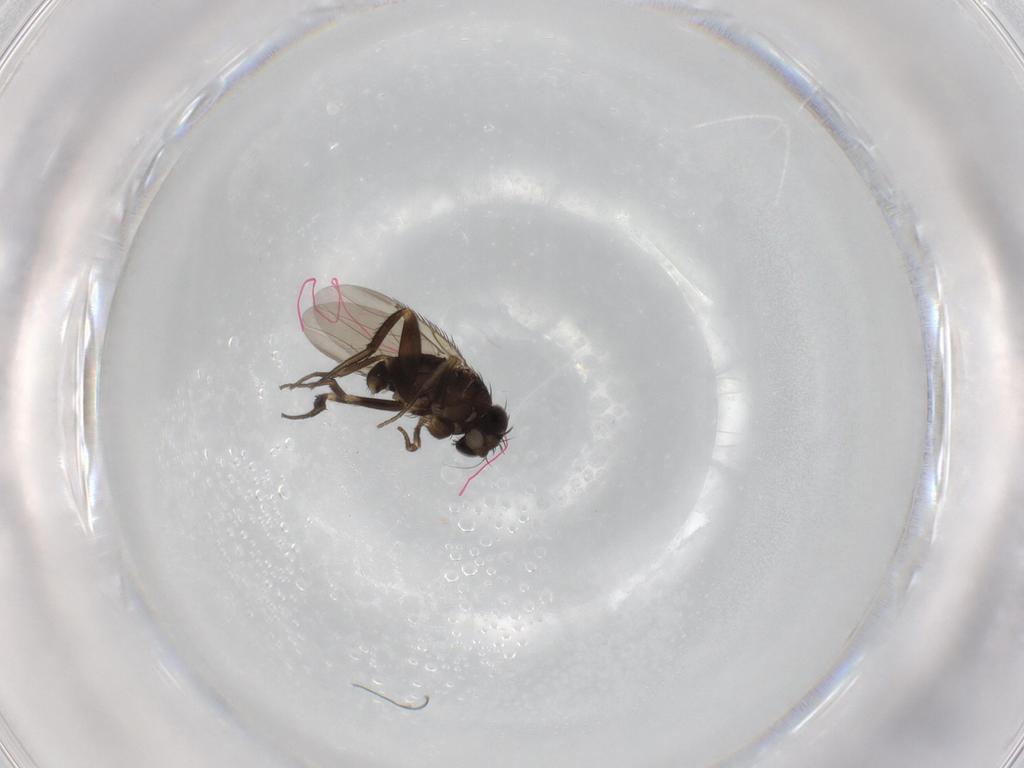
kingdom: Animalia
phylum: Arthropoda
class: Insecta
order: Diptera
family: Phoridae
